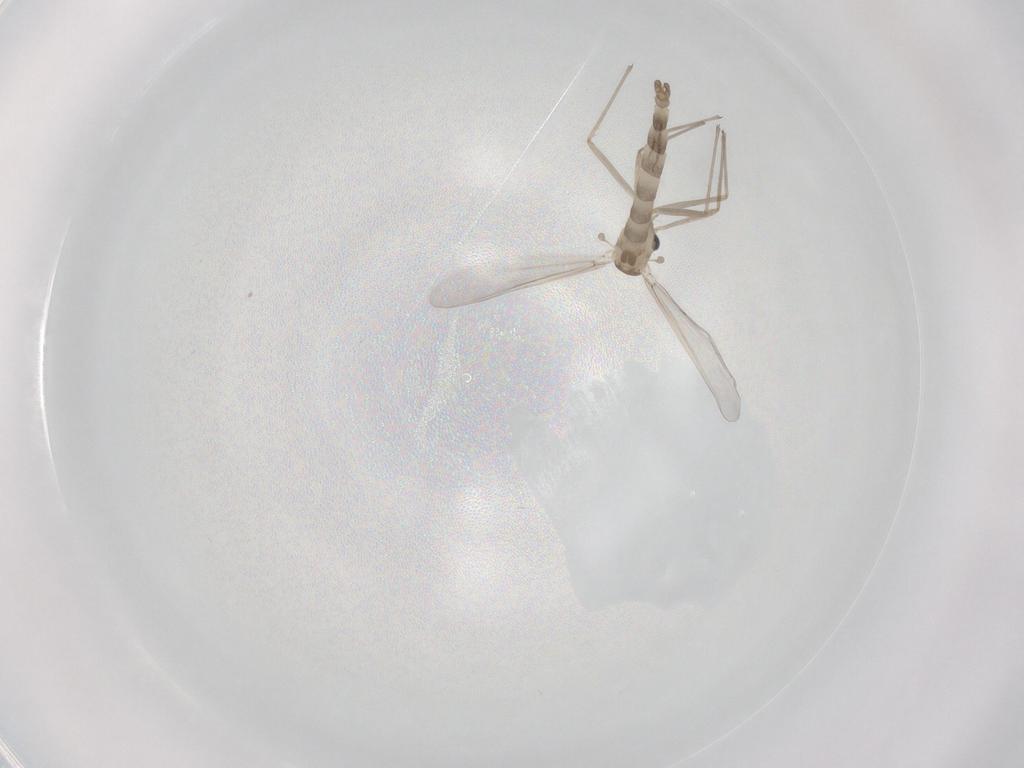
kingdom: Animalia
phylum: Arthropoda
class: Insecta
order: Diptera
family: Chironomidae
